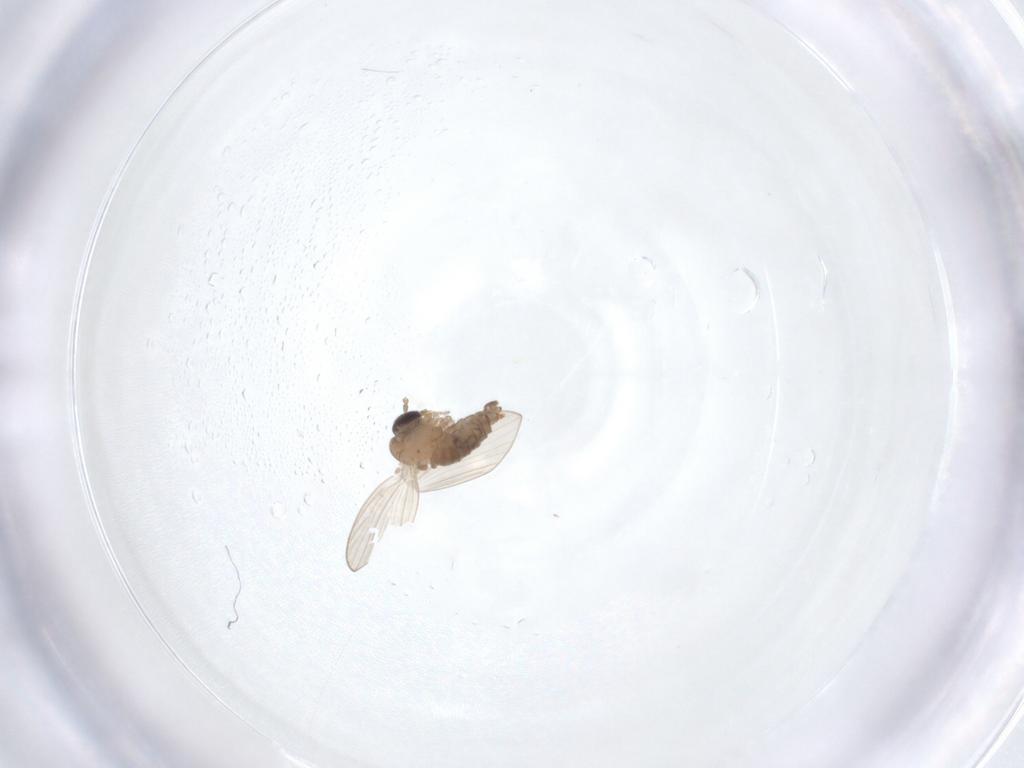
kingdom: Animalia
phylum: Arthropoda
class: Insecta
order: Diptera
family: Psychodidae
